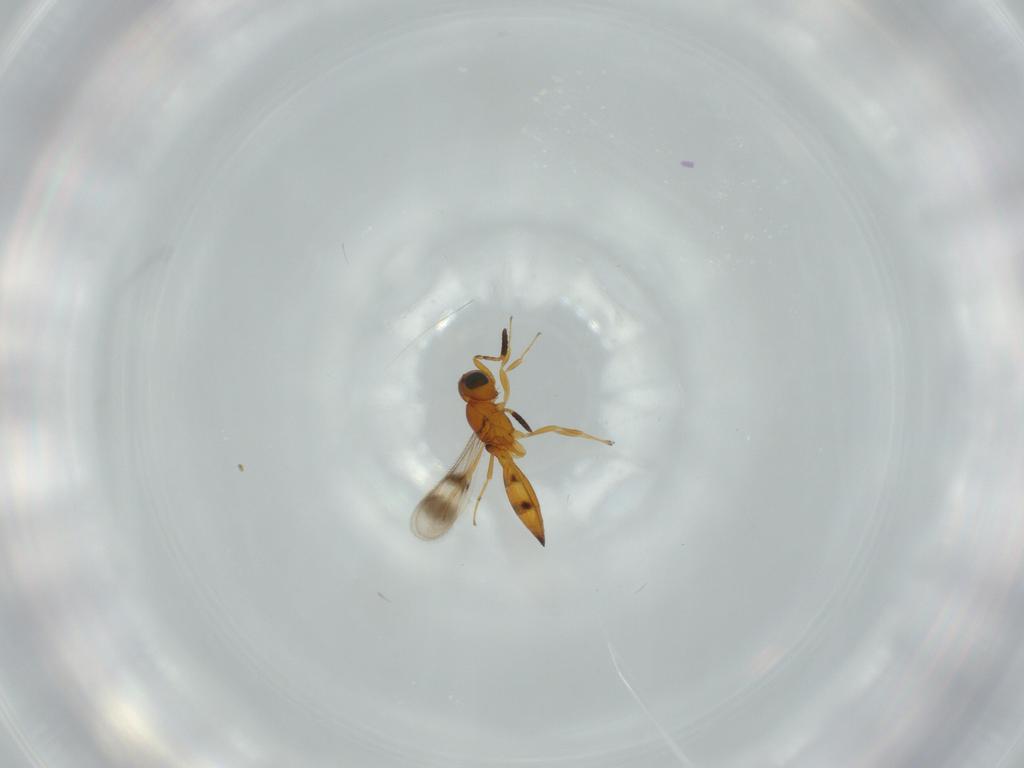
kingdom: Animalia
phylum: Arthropoda
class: Insecta
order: Hymenoptera
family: Scelionidae
